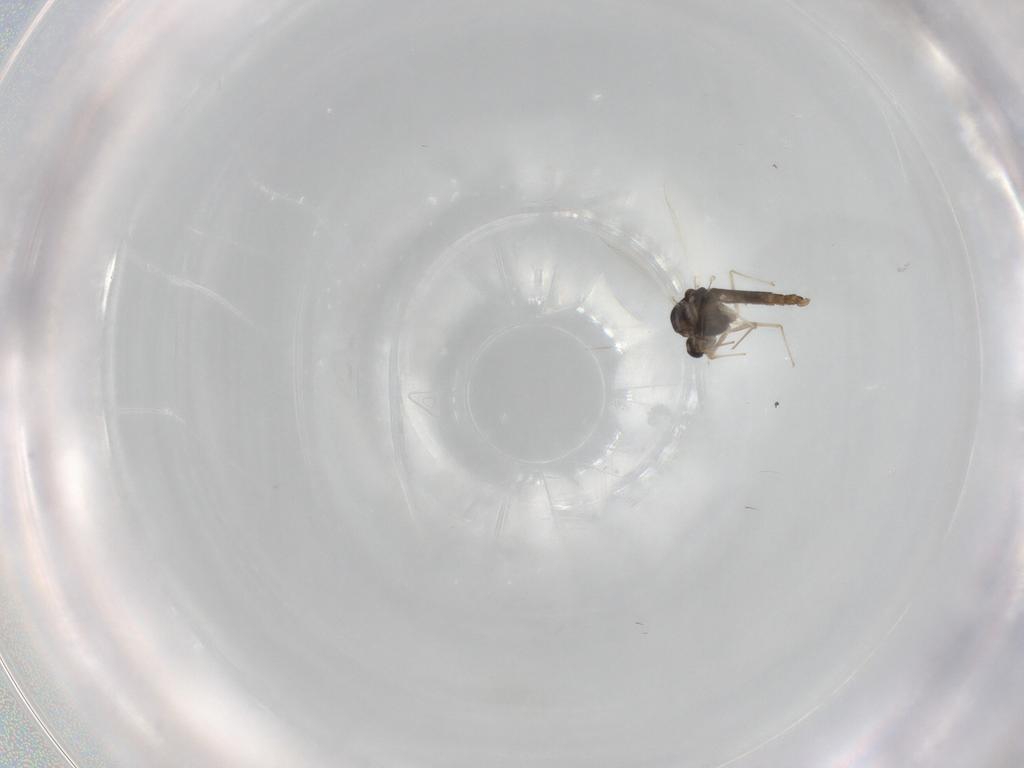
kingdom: Animalia
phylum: Arthropoda
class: Insecta
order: Diptera
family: Chironomidae
